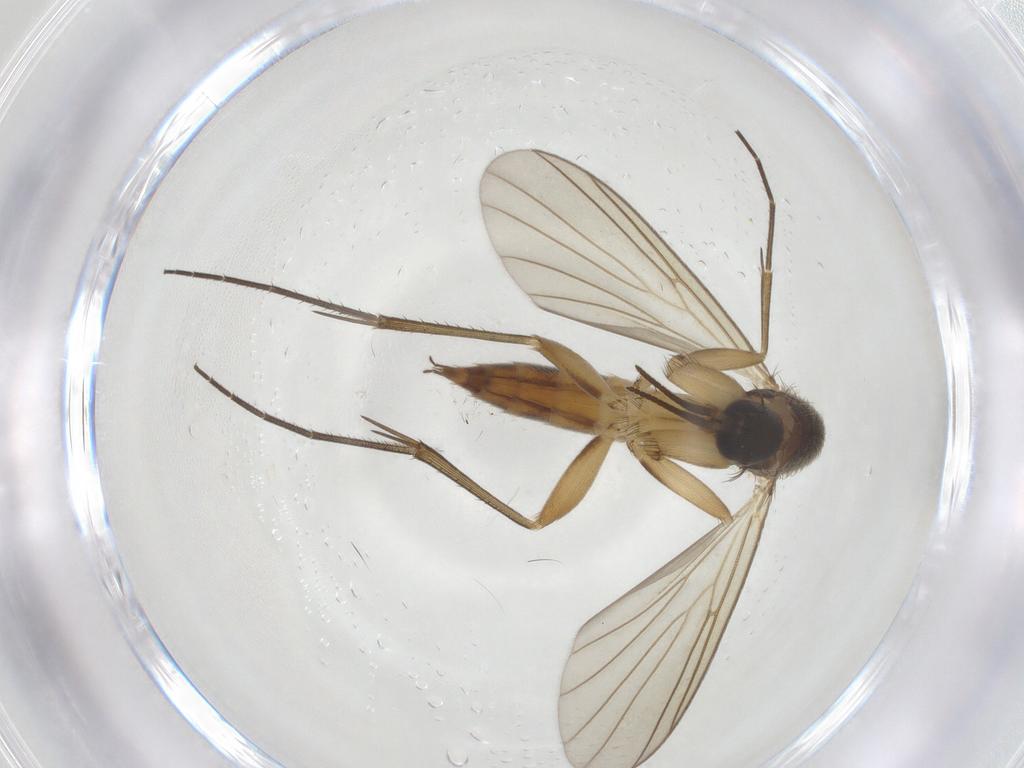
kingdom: Animalia
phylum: Arthropoda
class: Insecta
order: Diptera
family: Mycetophilidae
